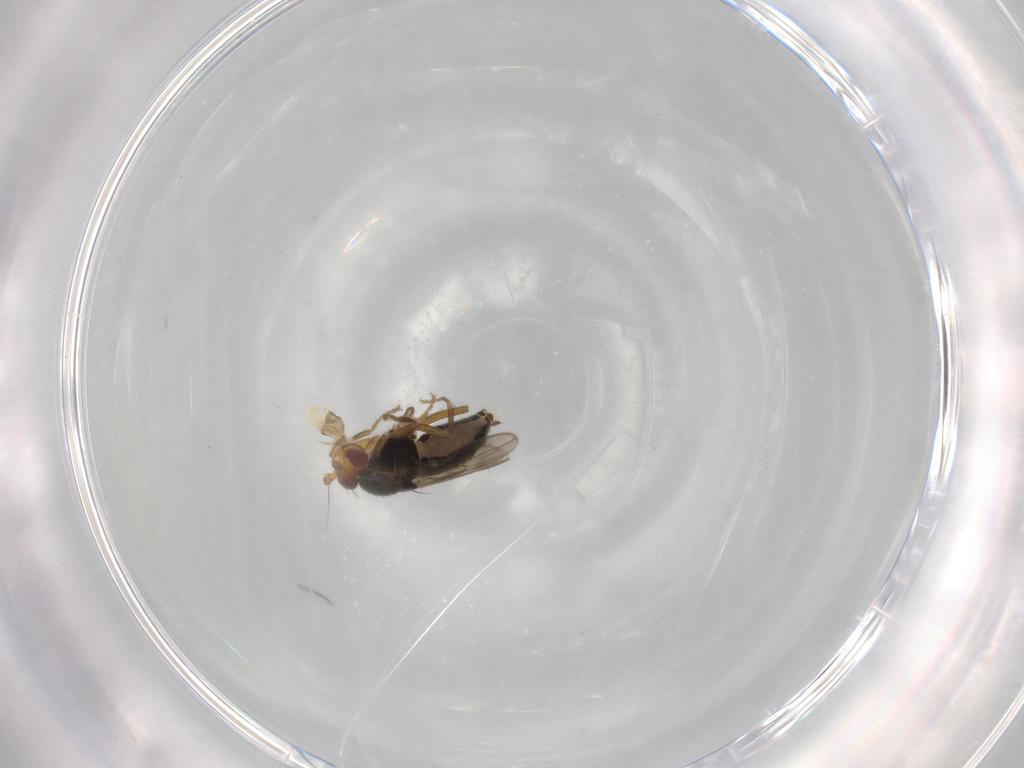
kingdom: Animalia
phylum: Arthropoda
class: Insecta
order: Diptera
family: Sphaeroceridae
